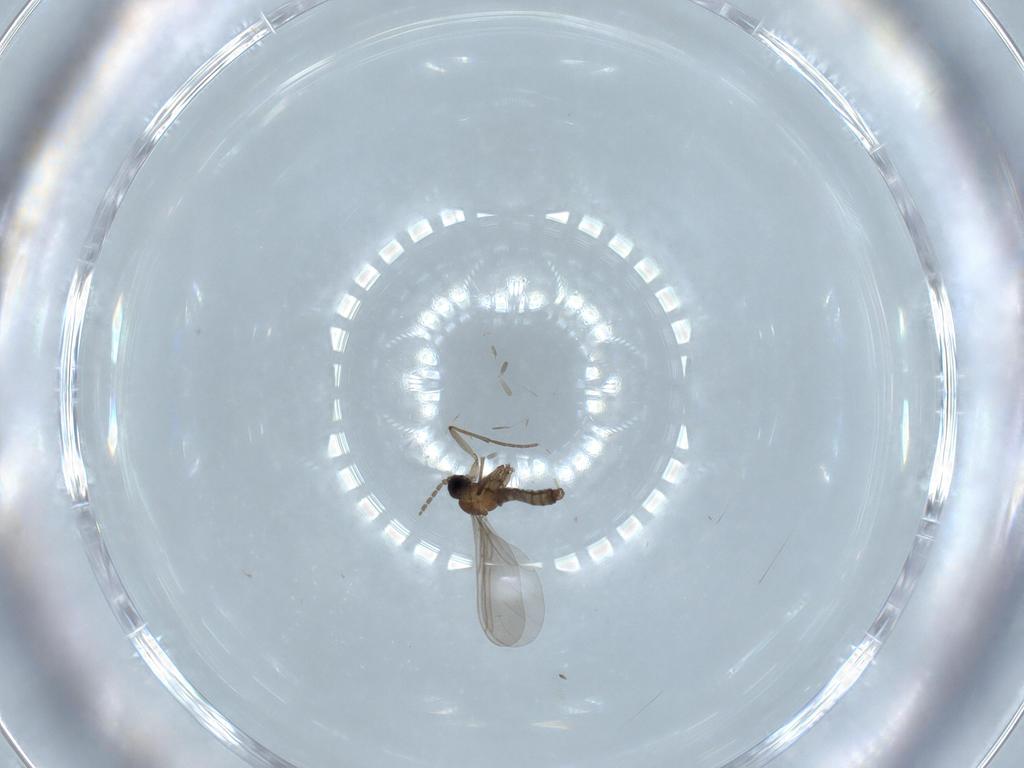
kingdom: Animalia
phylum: Arthropoda
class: Insecta
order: Diptera
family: Sciaridae
